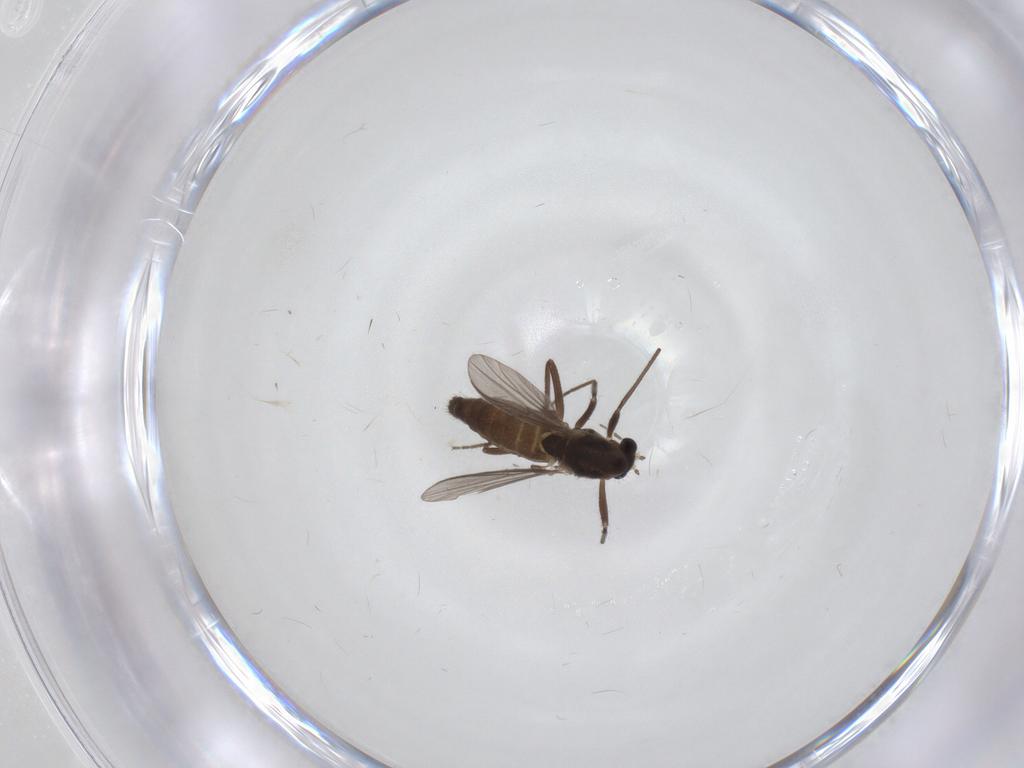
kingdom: Animalia
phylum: Arthropoda
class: Insecta
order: Diptera
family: Chironomidae
